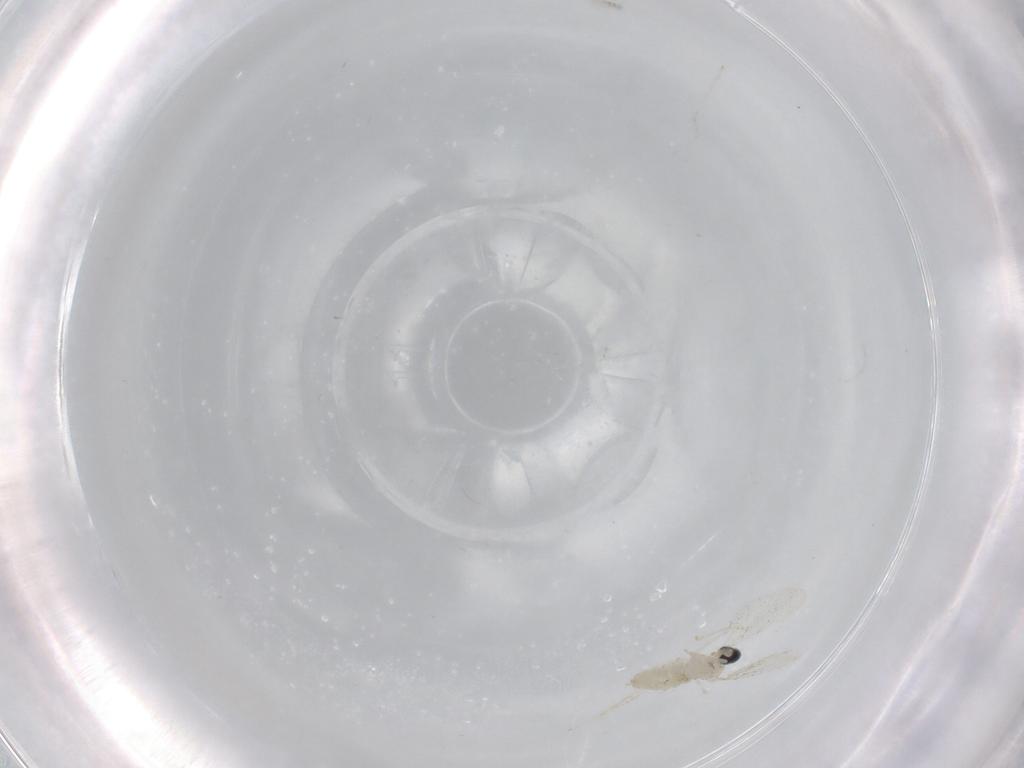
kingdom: Animalia
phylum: Arthropoda
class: Insecta
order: Diptera
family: Cecidomyiidae
